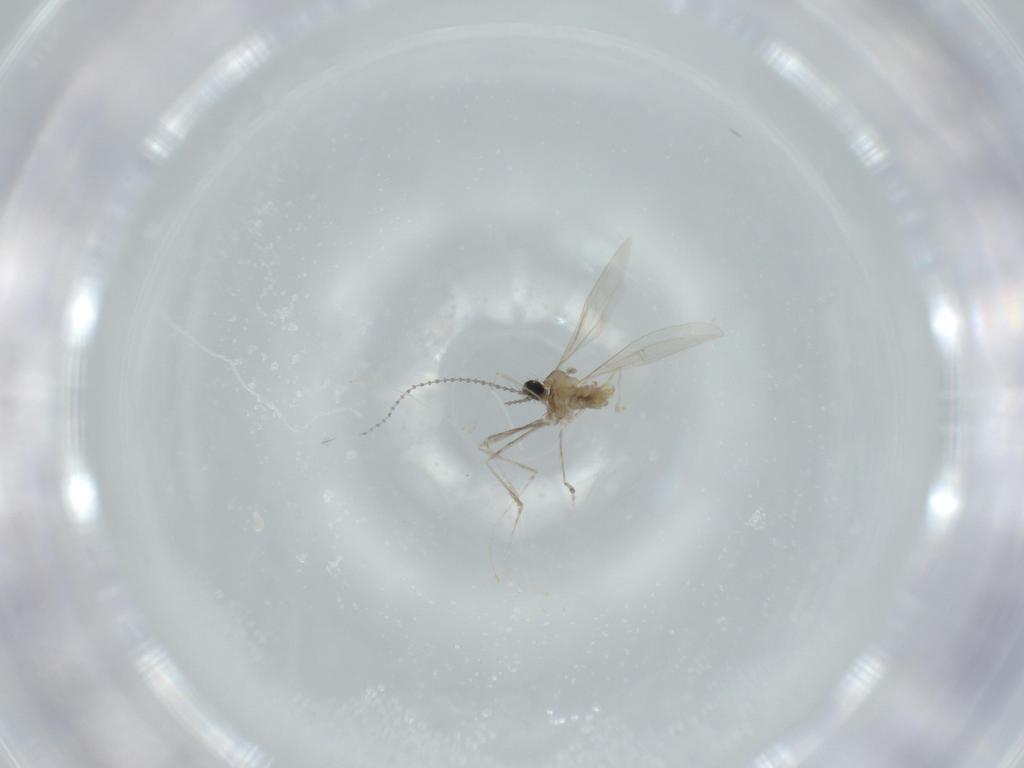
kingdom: Animalia
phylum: Arthropoda
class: Insecta
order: Diptera
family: Cecidomyiidae
